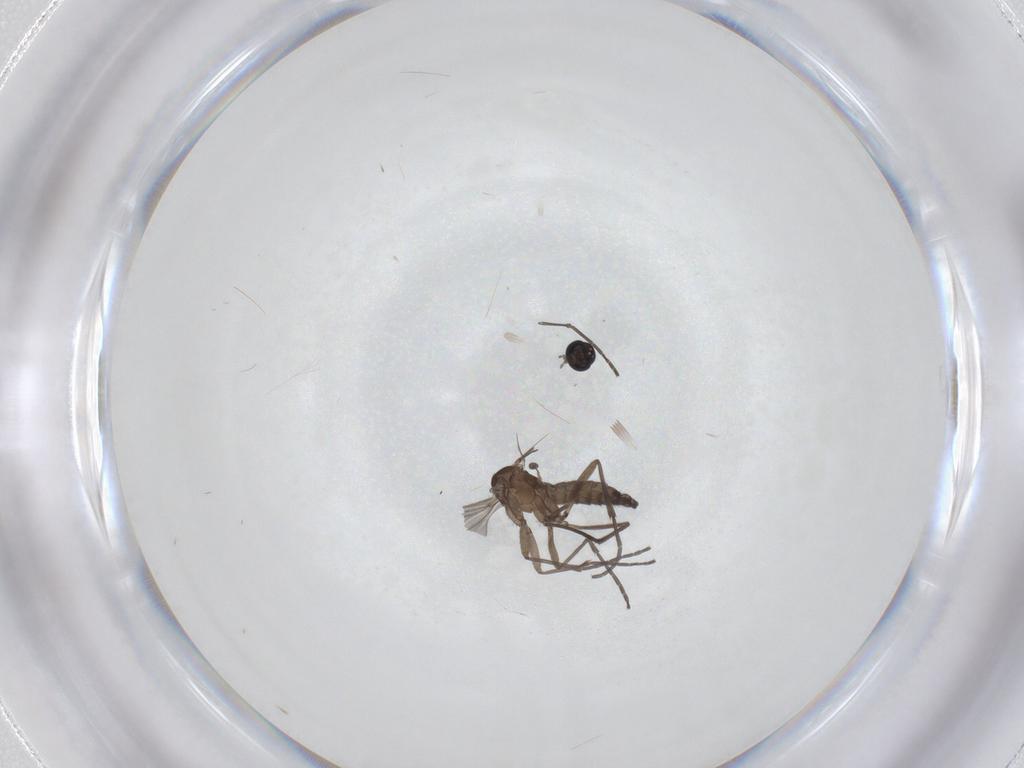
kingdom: Animalia
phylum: Arthropoda
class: Insecta
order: Diptera
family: Sciaridae
